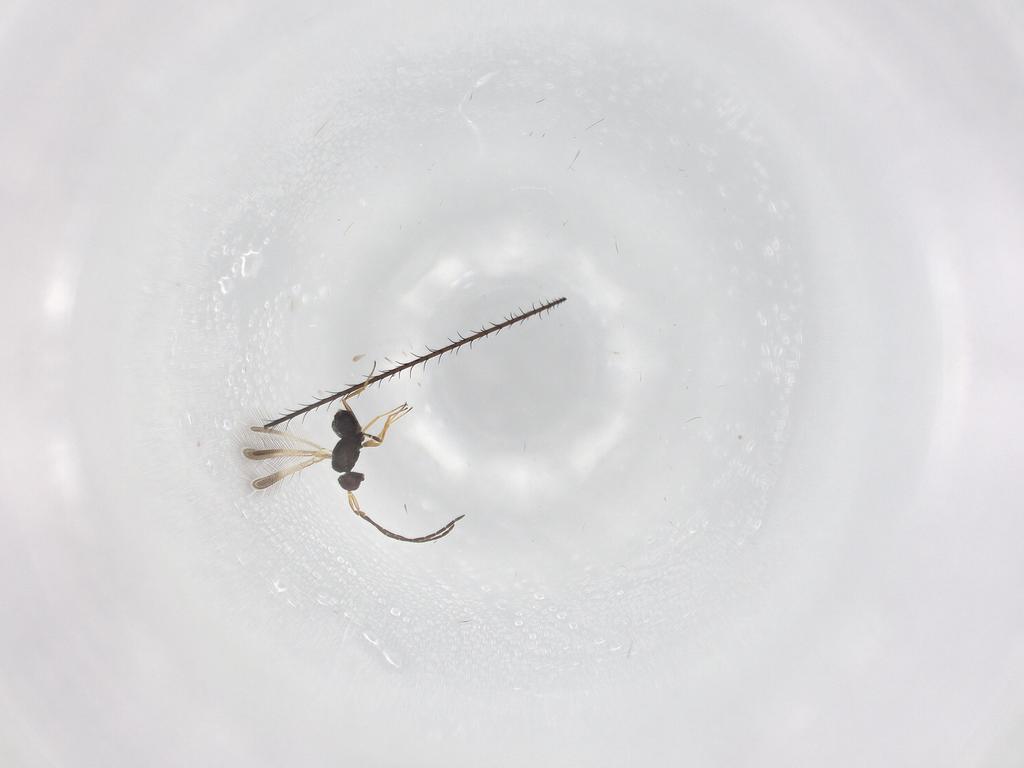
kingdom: Animalia
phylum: Arthropoda
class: Insecta
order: Hymenoptera
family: Mymaridae
